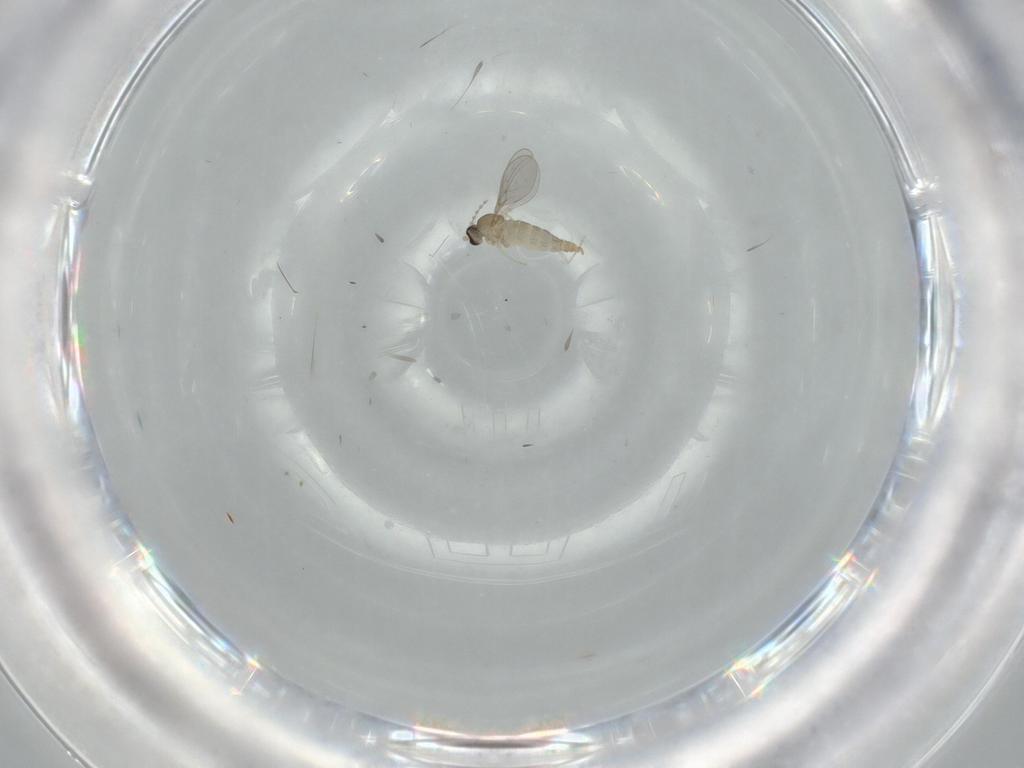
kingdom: Animalia
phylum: Arthropoda
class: Insecta
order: Diptera
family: Cecidomyiidae
